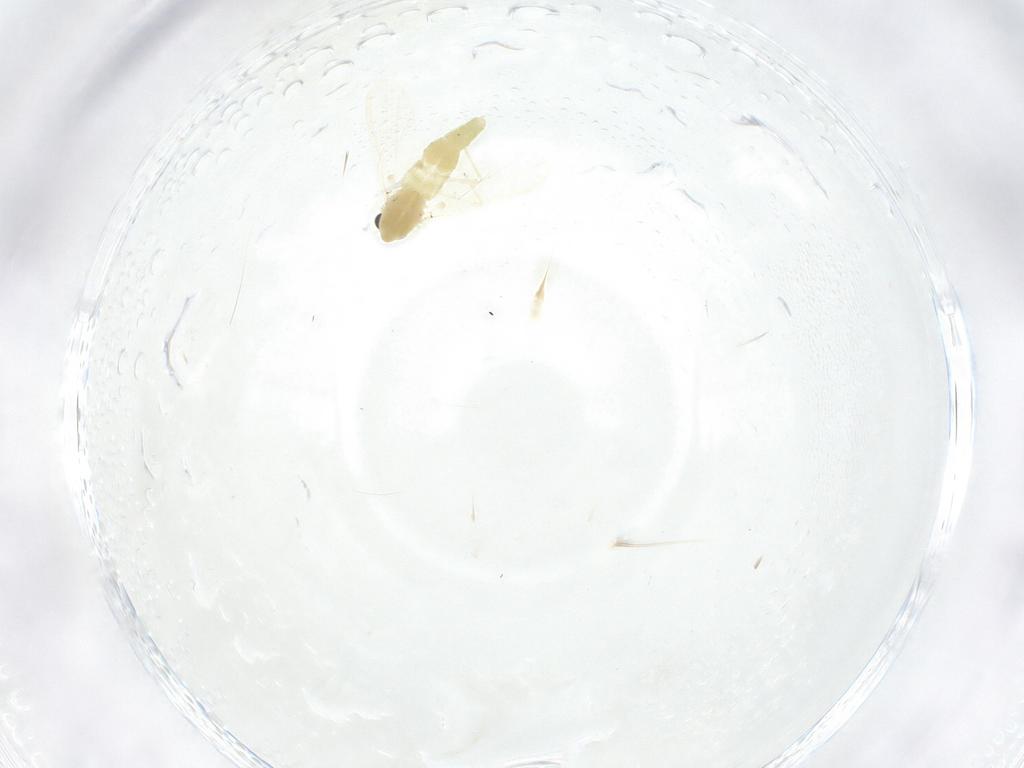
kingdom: Animalia
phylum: Arthropoda
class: Insecta
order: Diptera
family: Chironomidae
